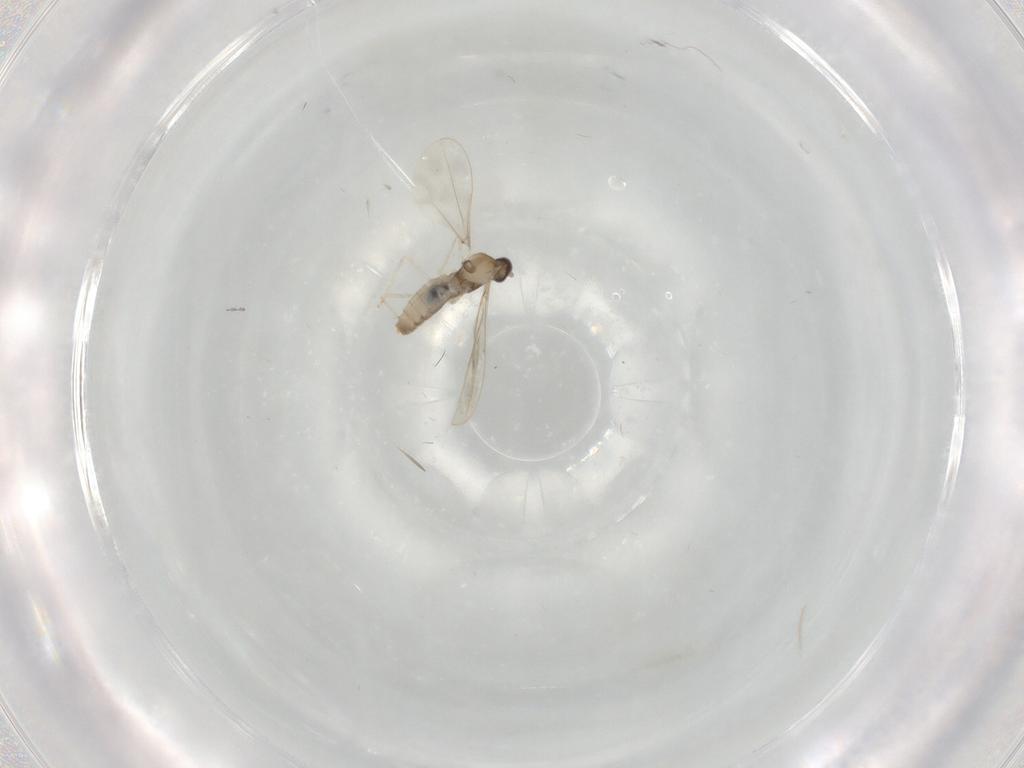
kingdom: Animalia
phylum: Arthropoda
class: Insecta
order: Diptera
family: Cecidomyiidae
